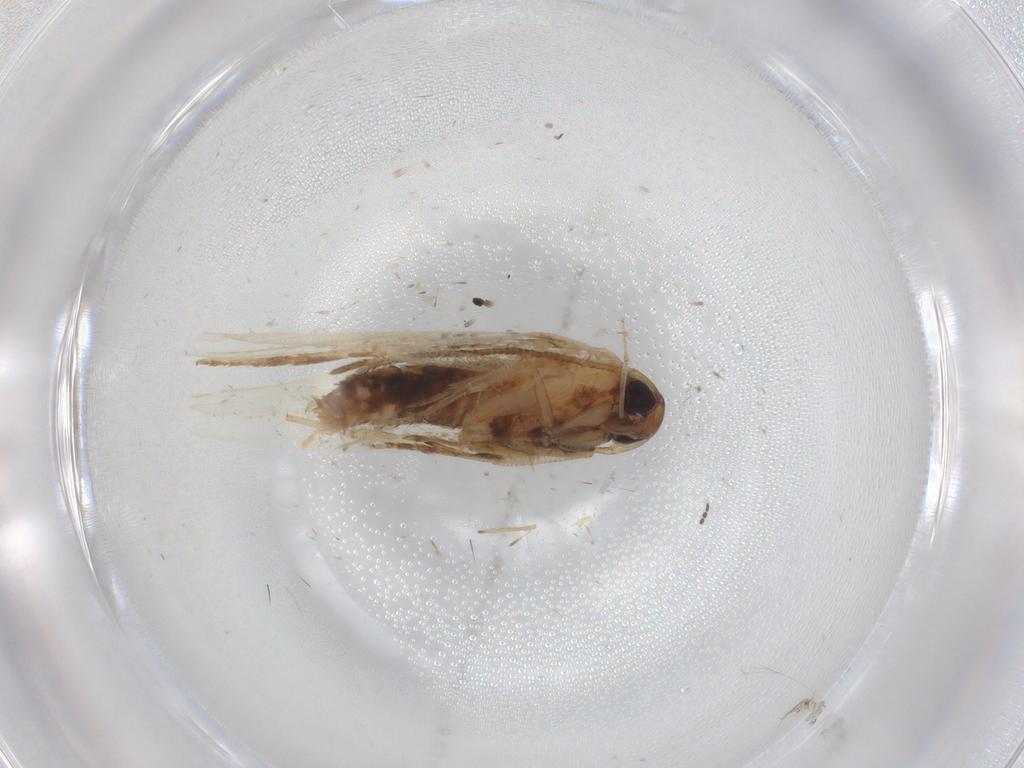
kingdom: Animalia
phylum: Arthropoda
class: Insecta
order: Lepidoptera
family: Cosmopterigidae
